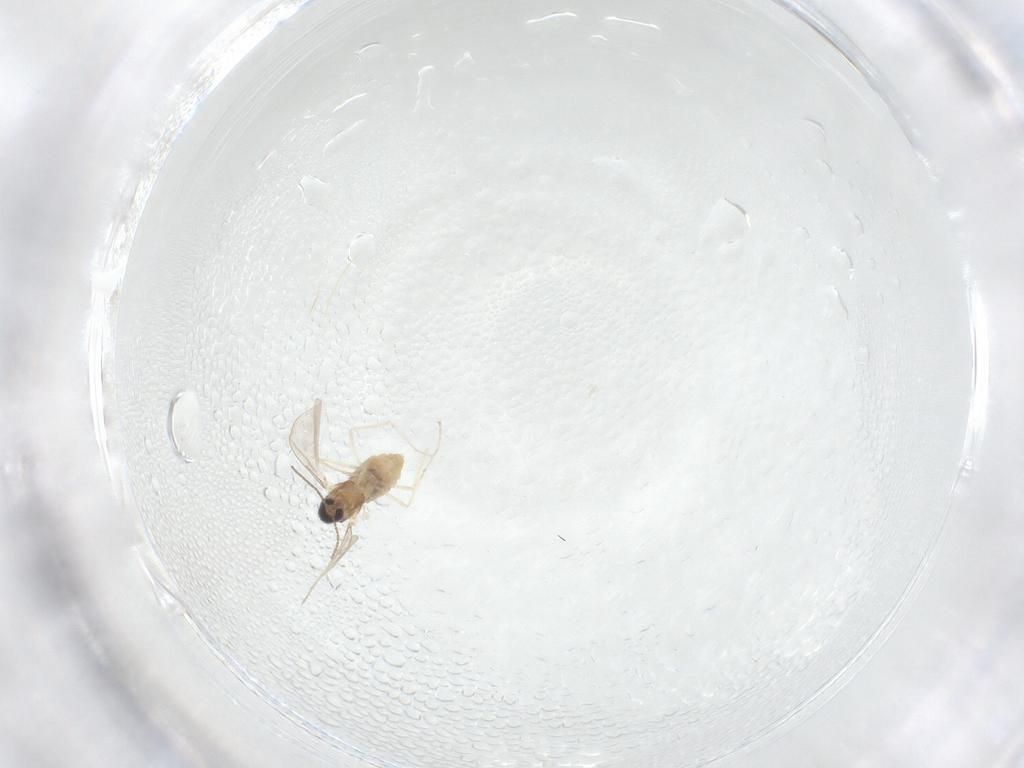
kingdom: Animalia
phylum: Arthropoda
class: Insecta
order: Diptera
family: Cecidomyiidae
